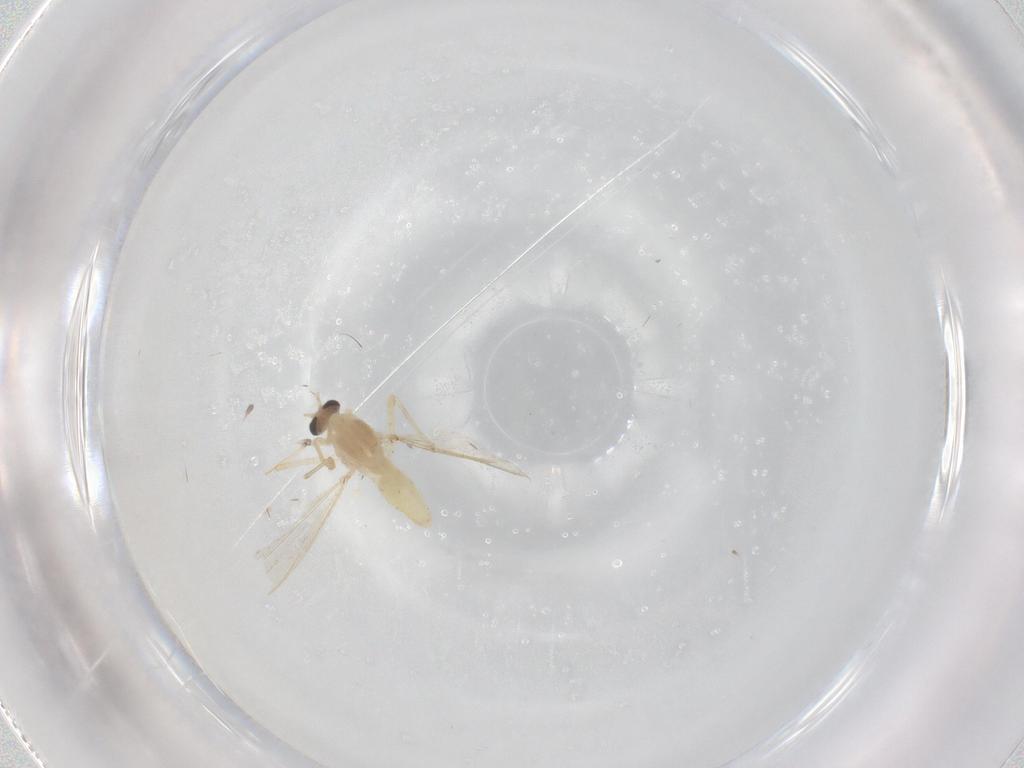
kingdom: Animalia
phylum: Arthropoda
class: Insecta
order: Diptera
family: Chironomidae
